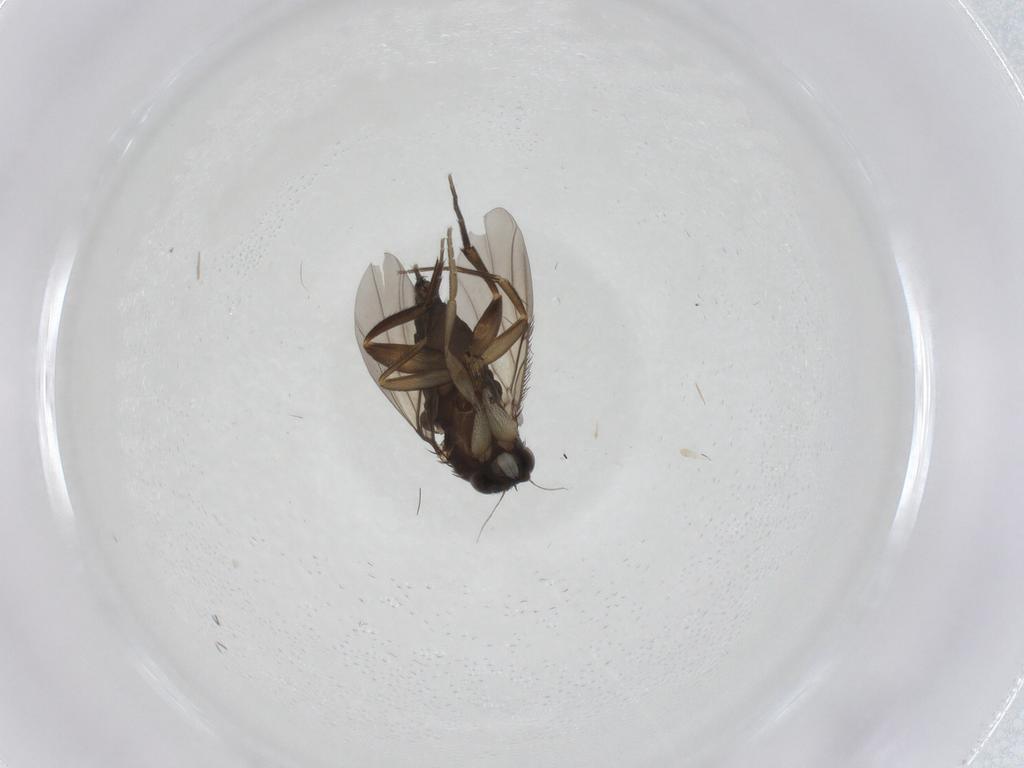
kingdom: Animalia
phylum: Arthropoda
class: Insecta
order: Diptera
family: Phoridae
